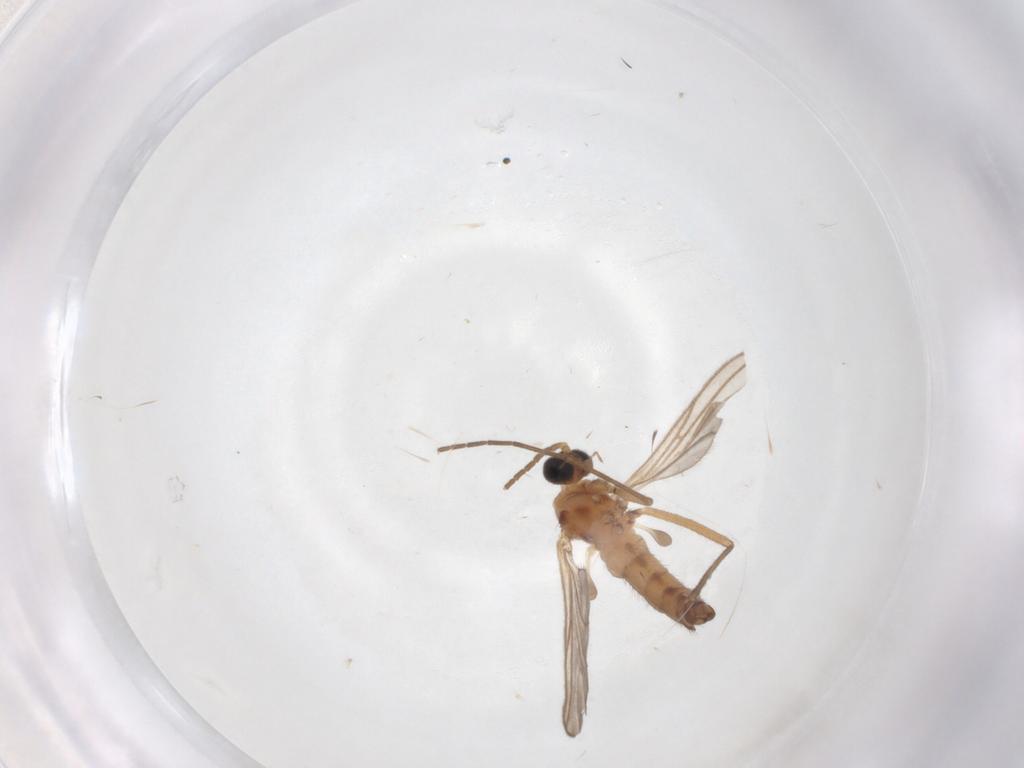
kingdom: Animalia
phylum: Arthropoda
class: Insecta
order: Diptera
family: Sciaridae
